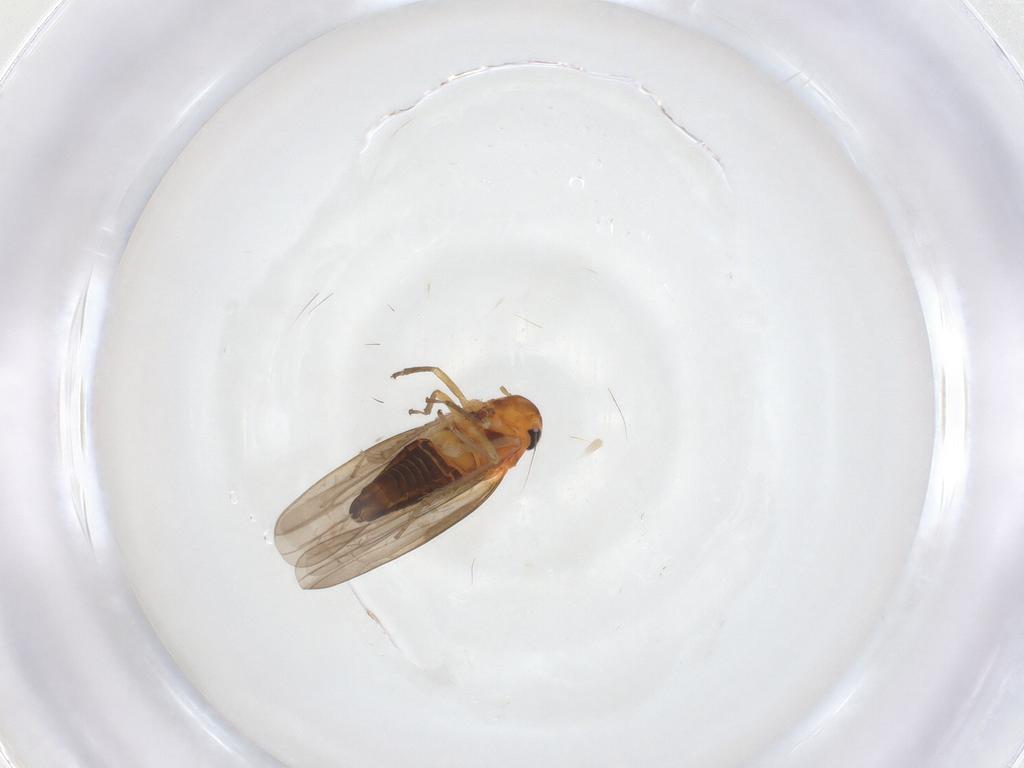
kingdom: Animalia
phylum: Arthropoda
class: Insecta
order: Hemiptera
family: Cicadellidae
